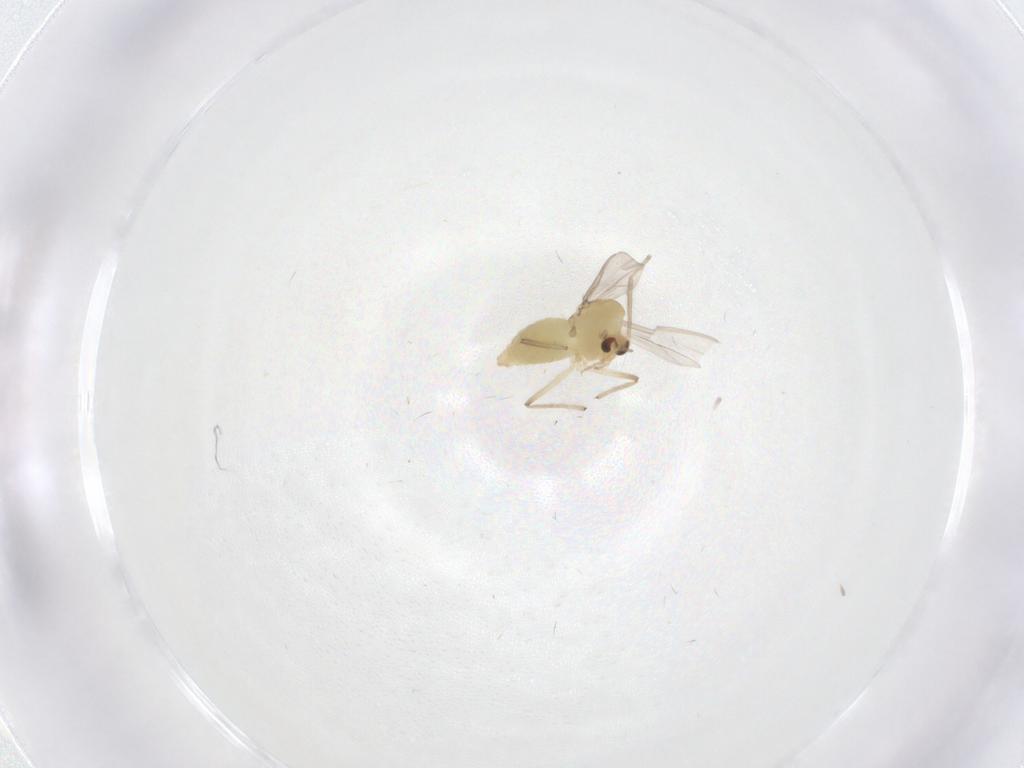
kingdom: Animalia
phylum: Arthropoda
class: Insecta
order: Diptera
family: Chironomidae
